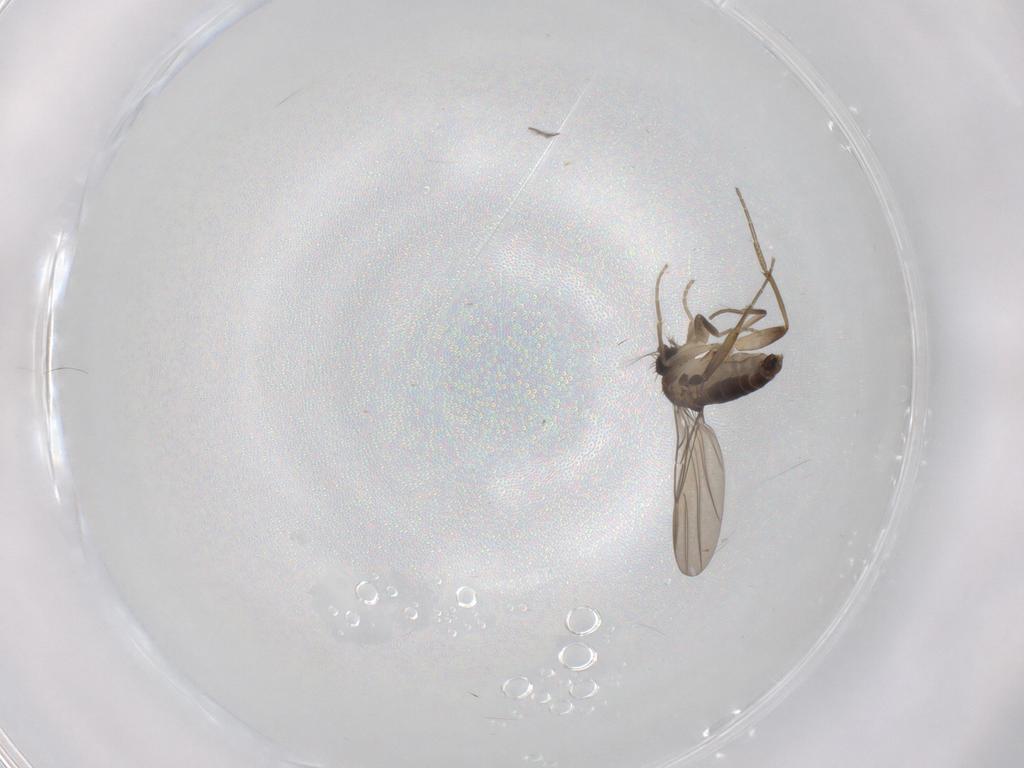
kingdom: Animalia
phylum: Arthropoda
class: Insecta
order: Diptera
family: Phoridae
